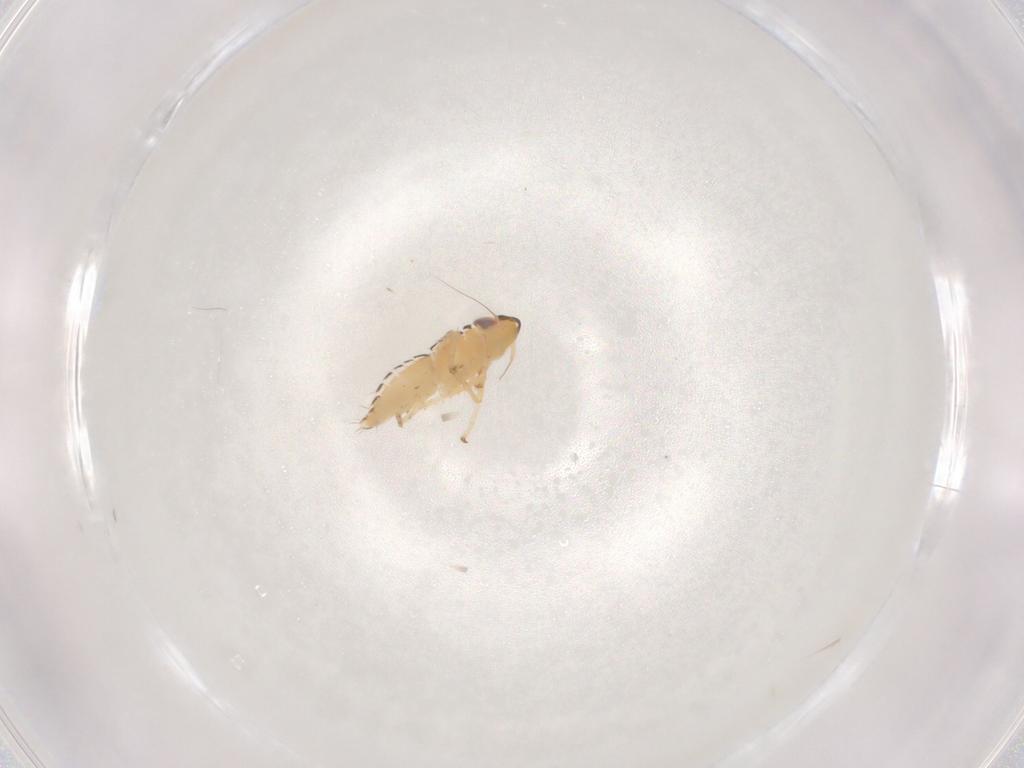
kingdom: Animalia
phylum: Arthropoda
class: Insecta
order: Hemiptera
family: Cicadellidae
